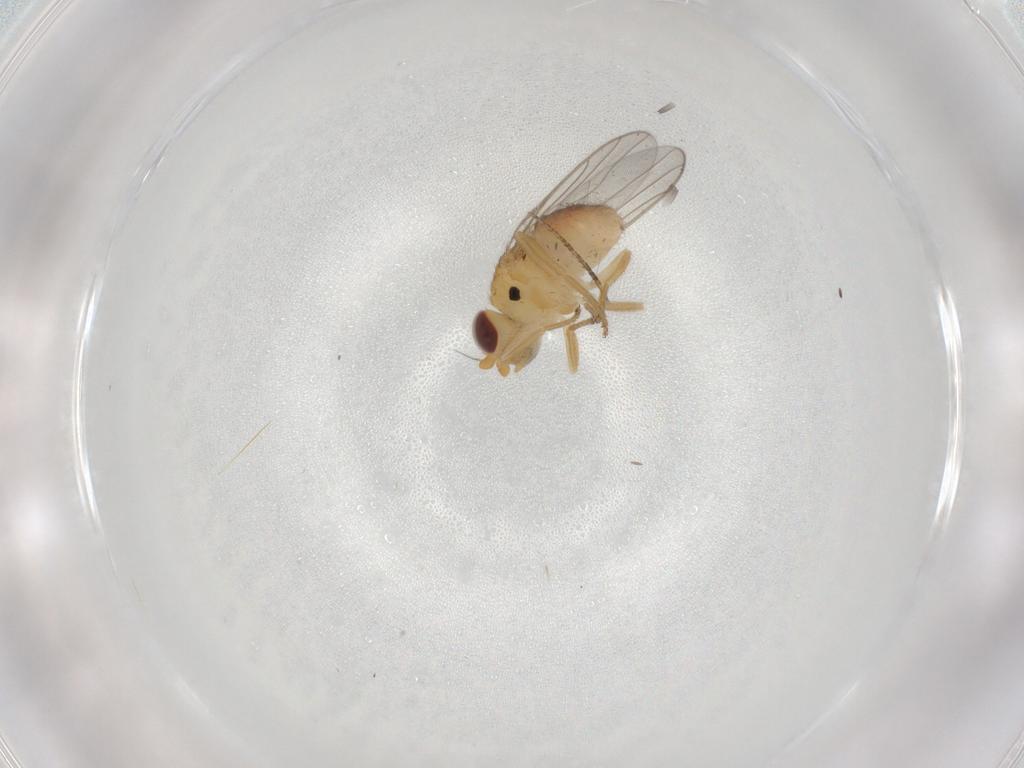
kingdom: Animalia
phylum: Arthropoda
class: Insecta
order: Diptera
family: Chloropidae
